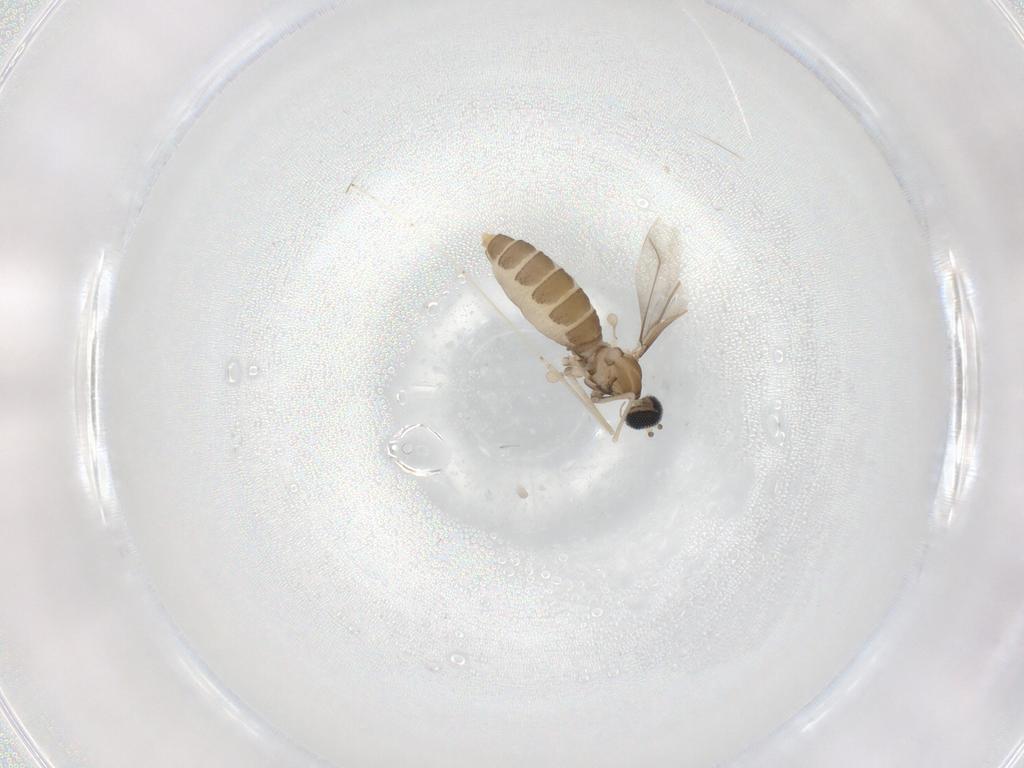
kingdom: Animalia
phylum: Arthropoda
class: Insecta
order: Diptera
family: Cecidomyiidae
